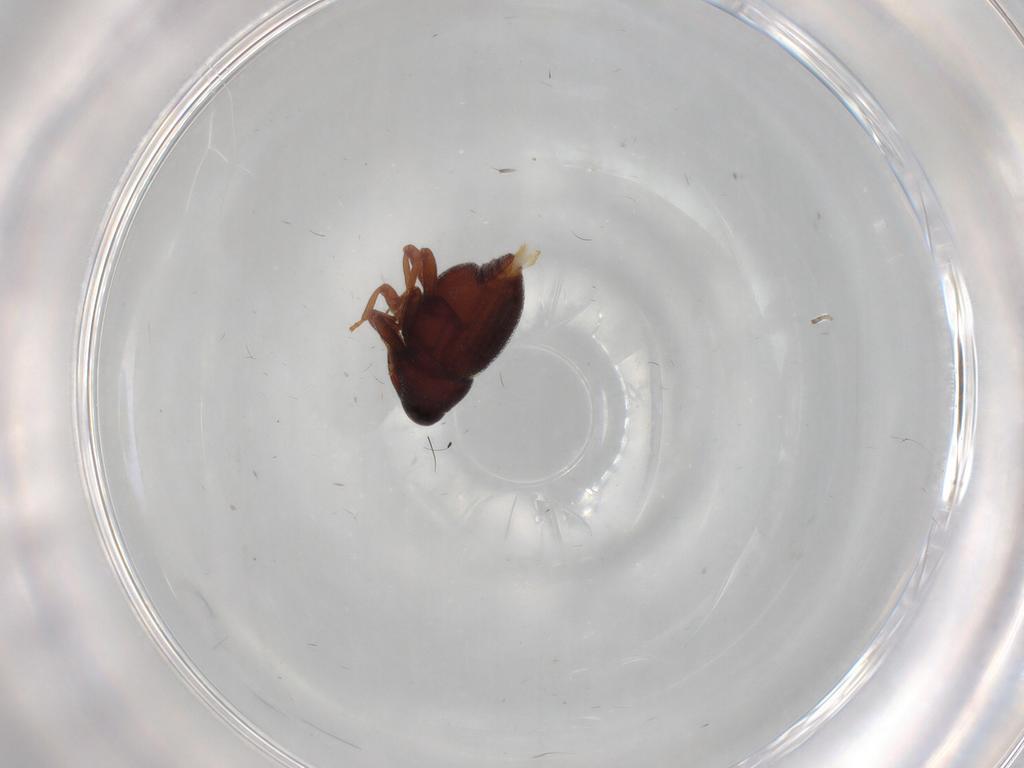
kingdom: Animalia
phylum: Arthropoda
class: Insecta
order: Coleoptera
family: Curculionidae
